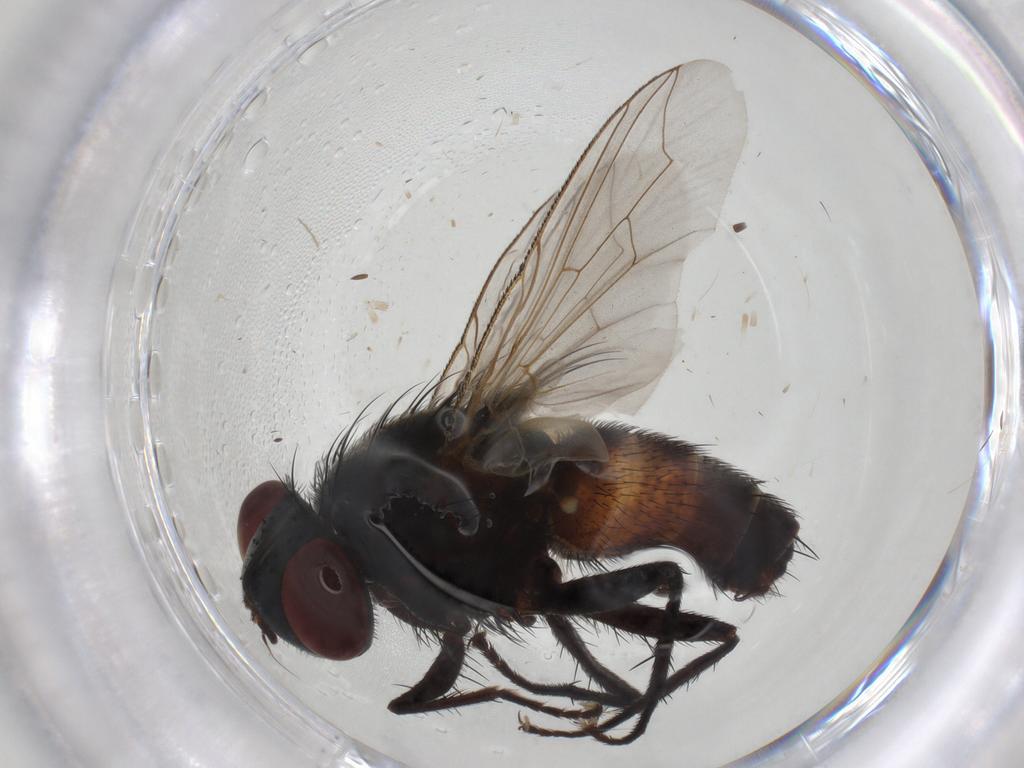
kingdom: Animalia
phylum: Arthropoda
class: Insecta
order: Diptera
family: Sarcophagidae
